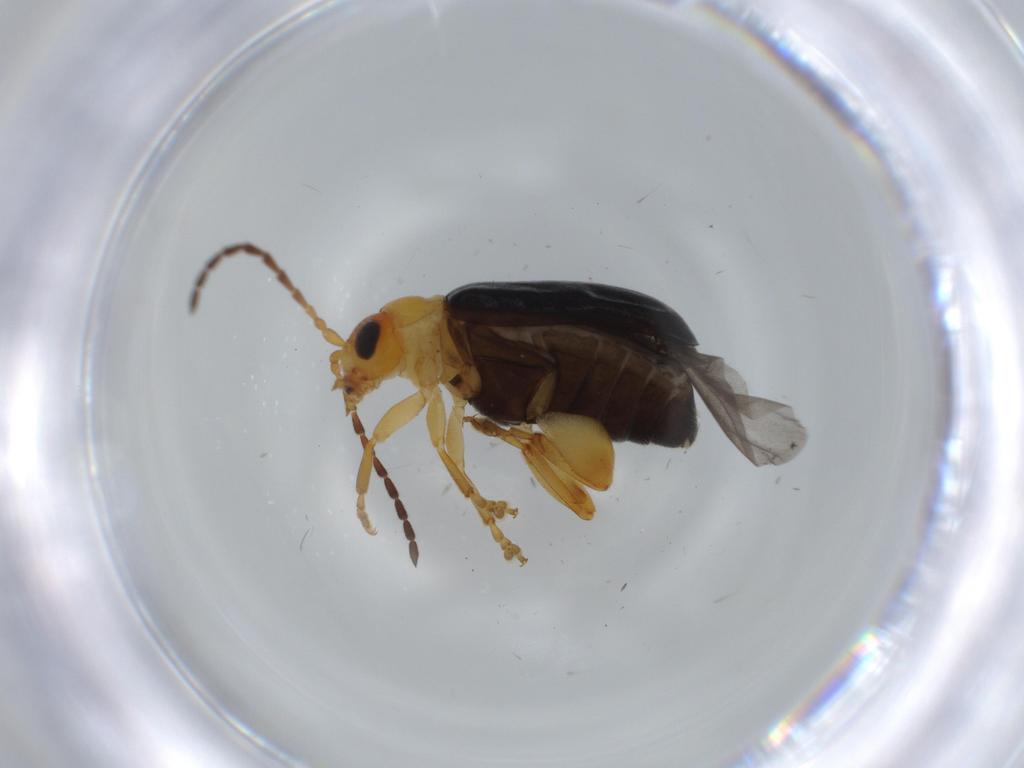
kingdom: Animalia
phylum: Arthropoda
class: Insecta
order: Coleoptera
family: Chrysomelidae
